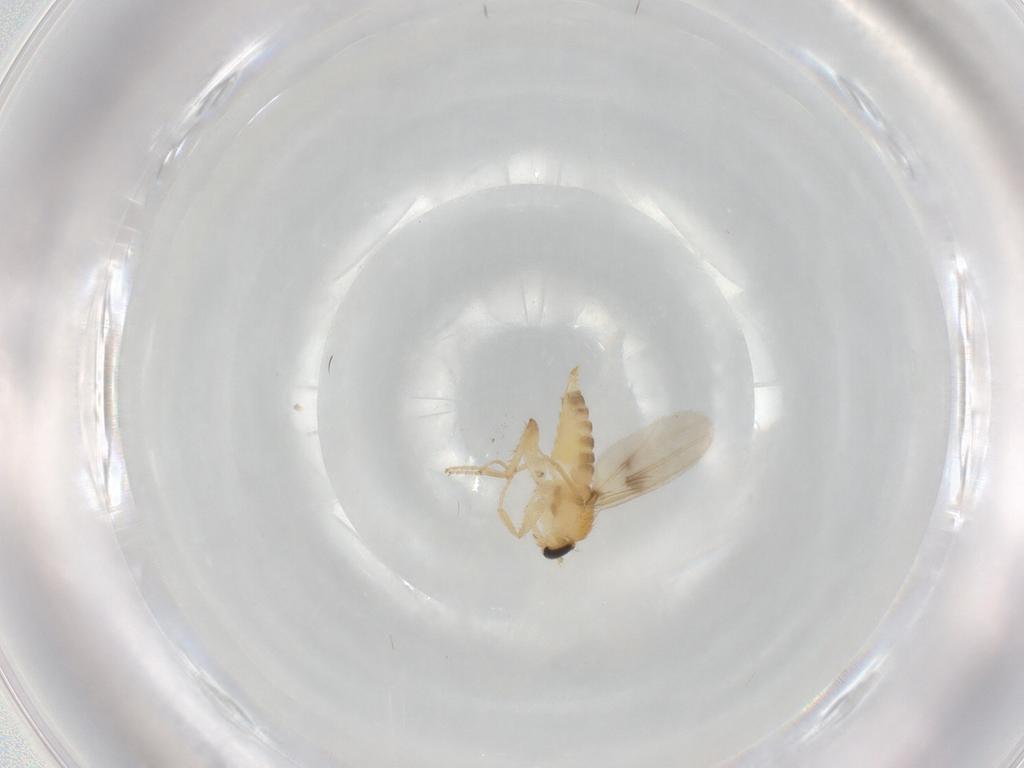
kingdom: Animalia
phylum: Arthropoda
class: Insecta
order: Diptera
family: Hybotidae
